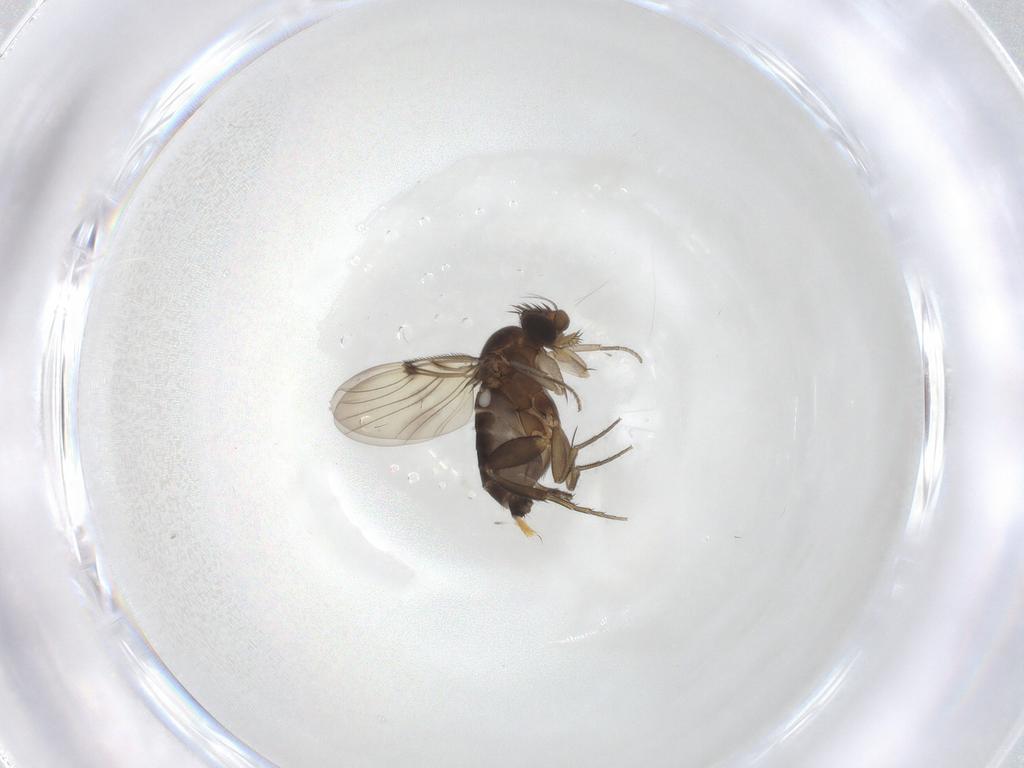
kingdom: Animalia
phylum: Arthropoda
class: Insecta
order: Diptera
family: Phoridae
